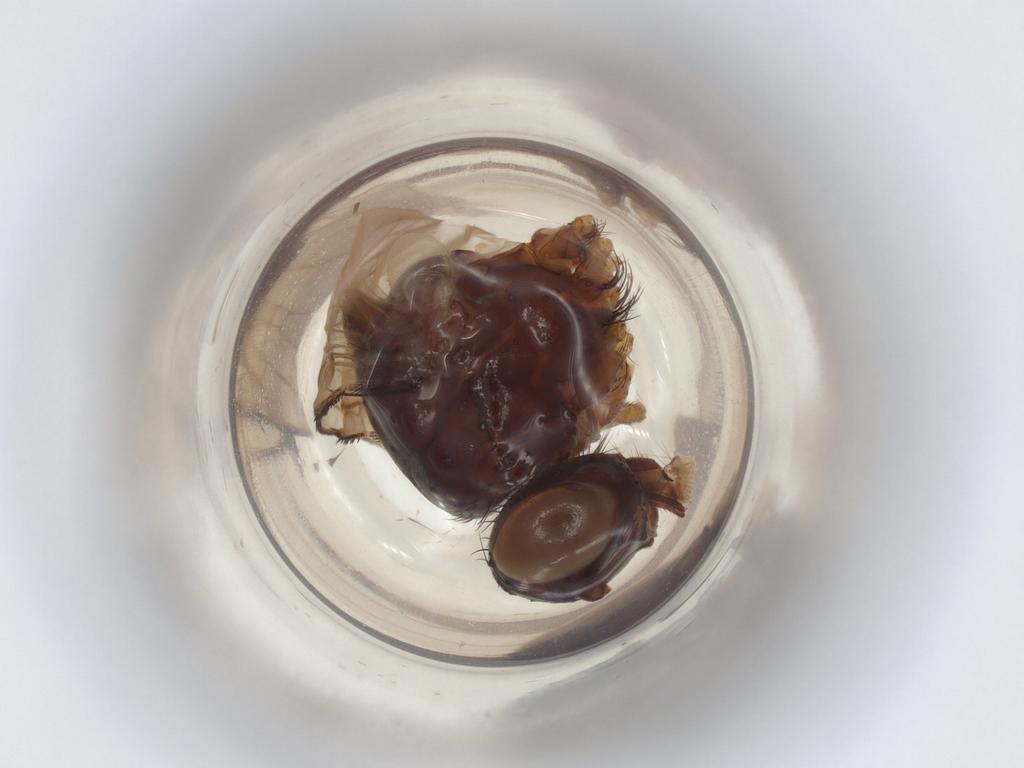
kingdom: Animalia
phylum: Arthropoda
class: Insecta
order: Diptera
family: Muscidae
